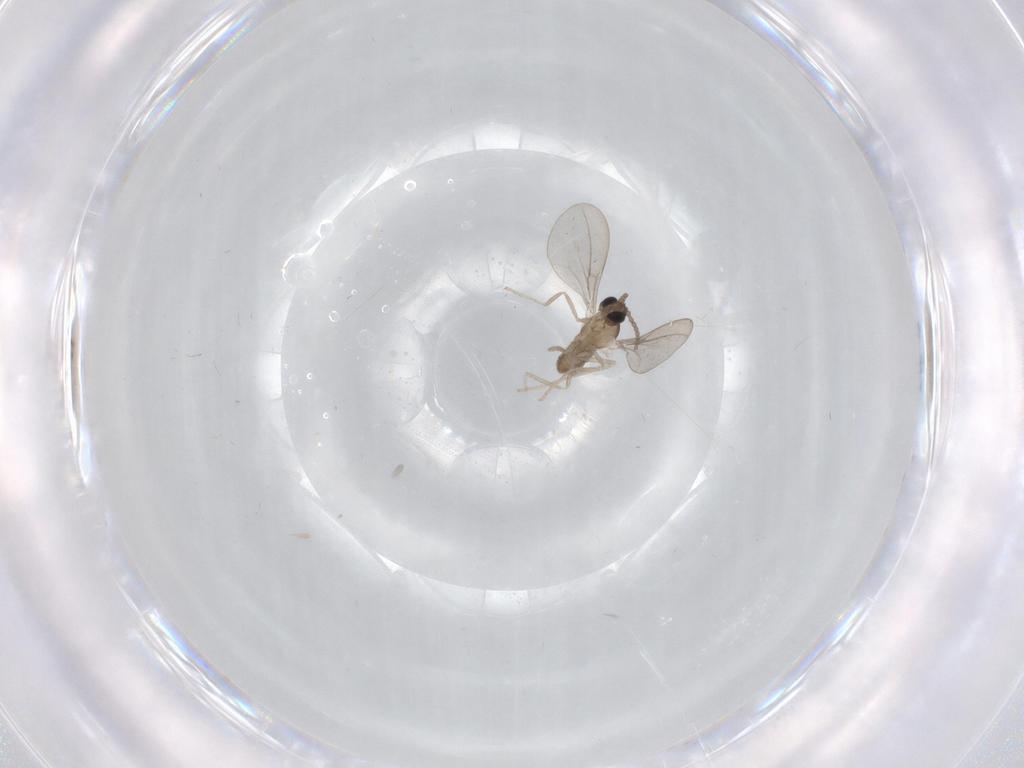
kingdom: Animalia
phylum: Arthropoda
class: Insecta
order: Diptera
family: Cecidomyiidae
